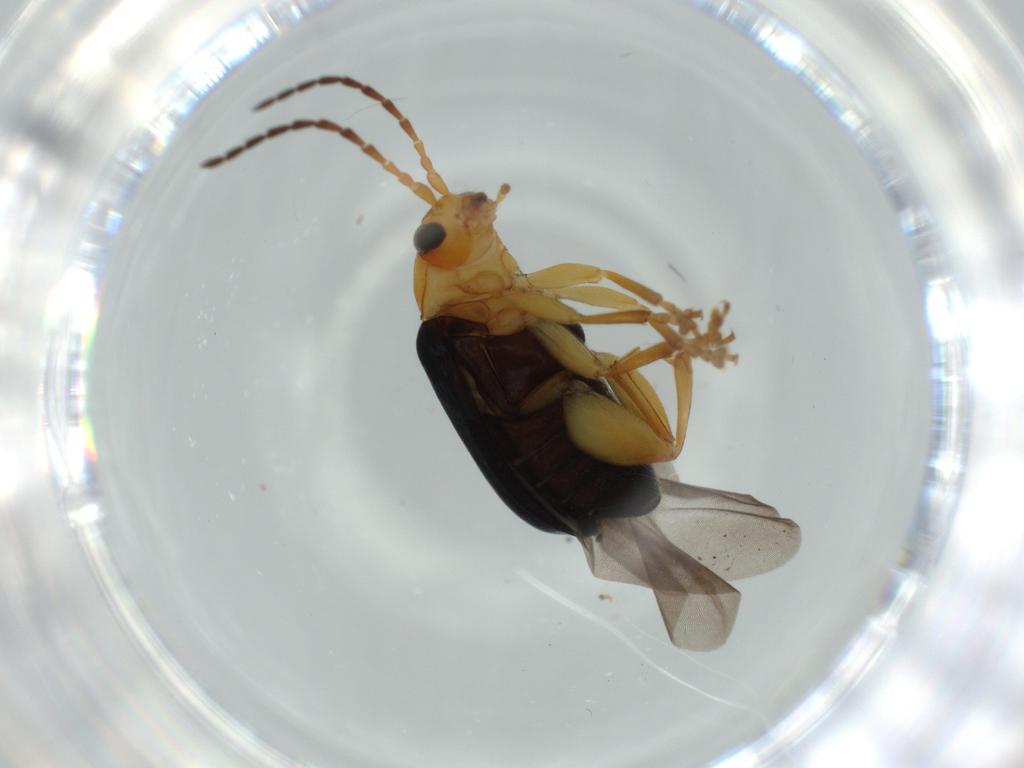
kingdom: Animalia
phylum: Arthropoda
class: Insecta
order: Coleoptera
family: Chrysomelidae
